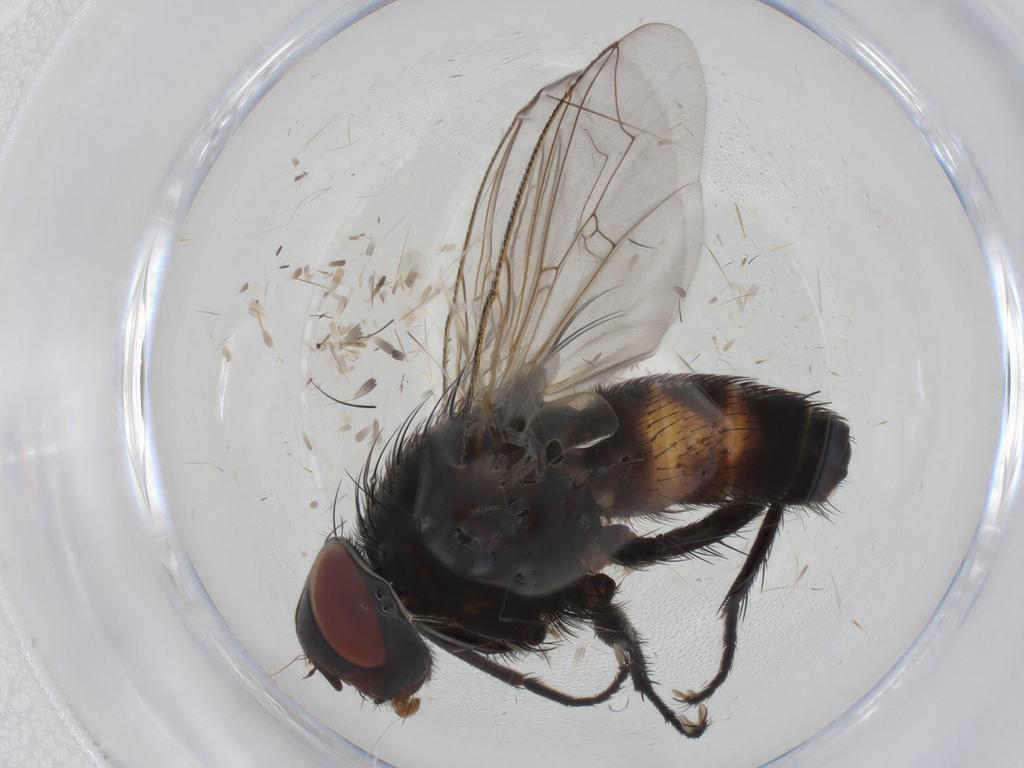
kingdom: Animalia
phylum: Arthropoda
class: Insecta
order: Diptera
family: Sarcophagidae
